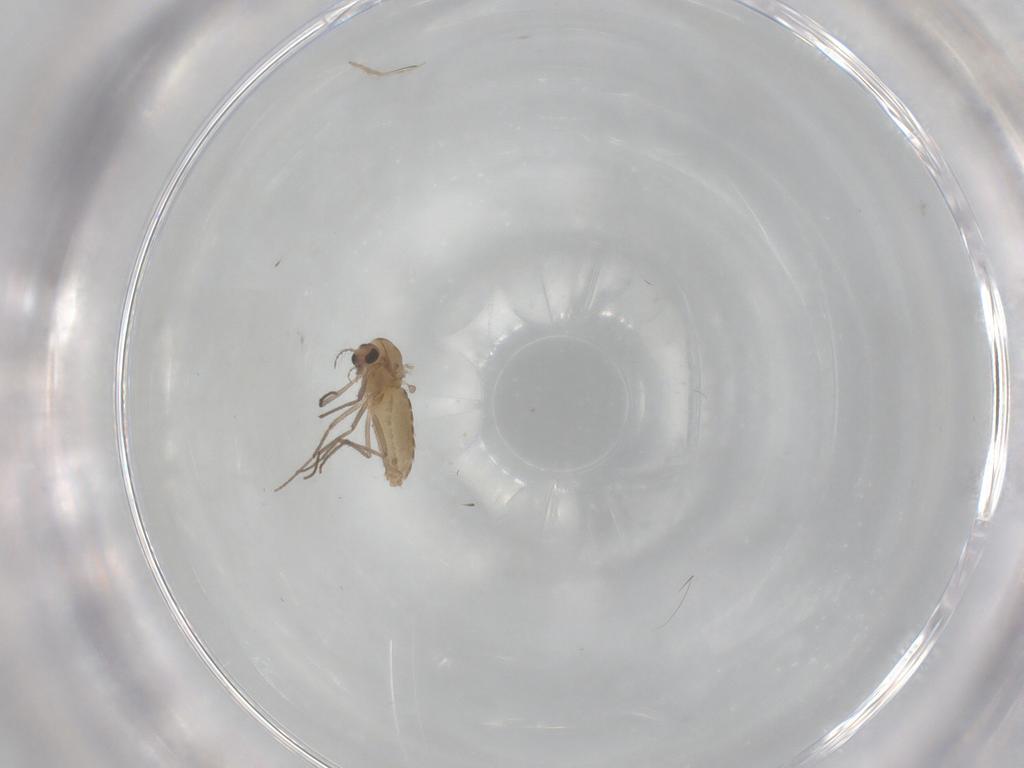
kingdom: Animalia
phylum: Arthropoda
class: Insecta
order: Diptera
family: Chironomidae
